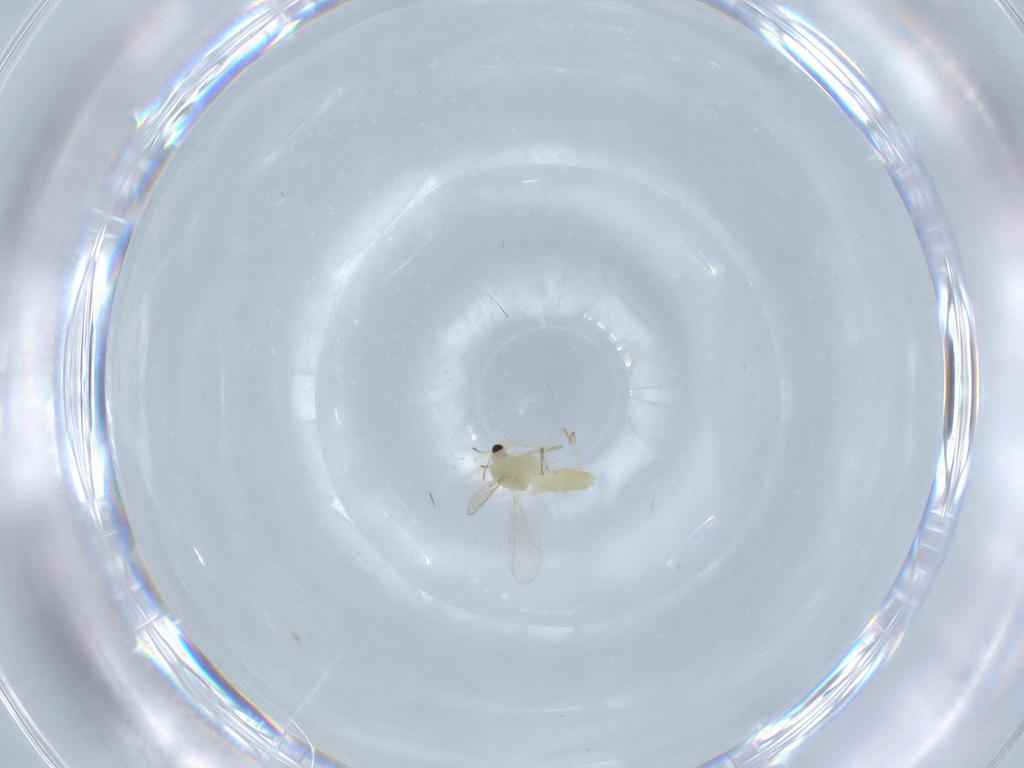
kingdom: Animalia
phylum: Arthropoda
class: Insecta
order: Diptera
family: Chironomidae
